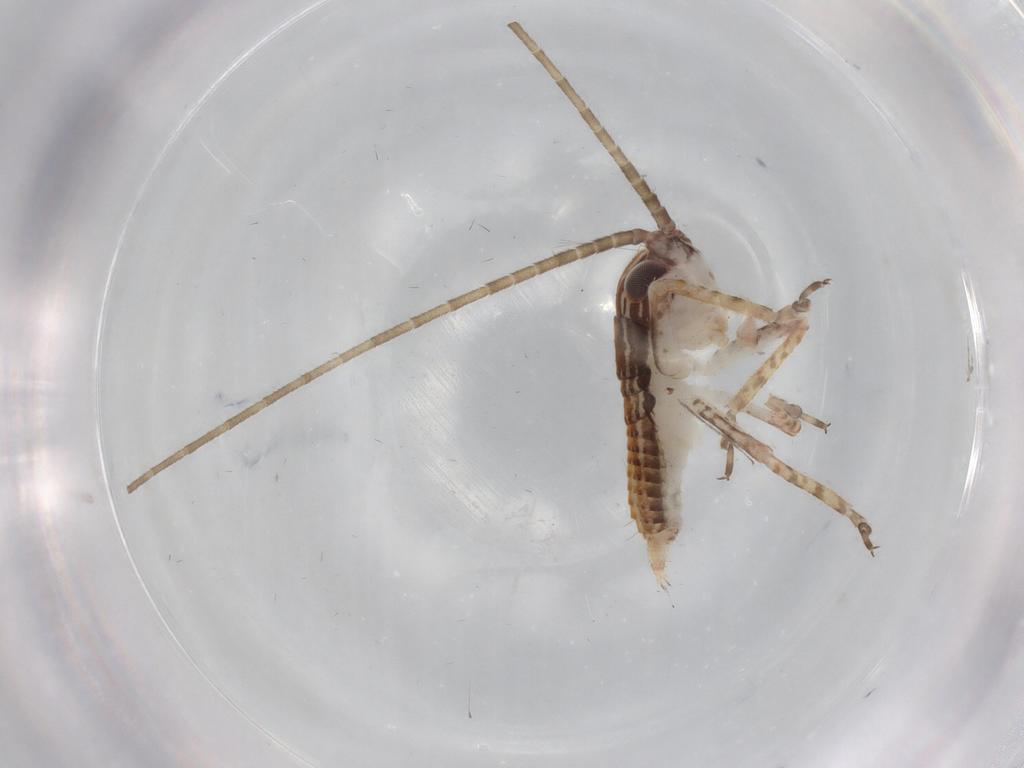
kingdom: Animalia
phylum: Arthropoda
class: Insecta
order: Orthoptera
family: Gryllidae
